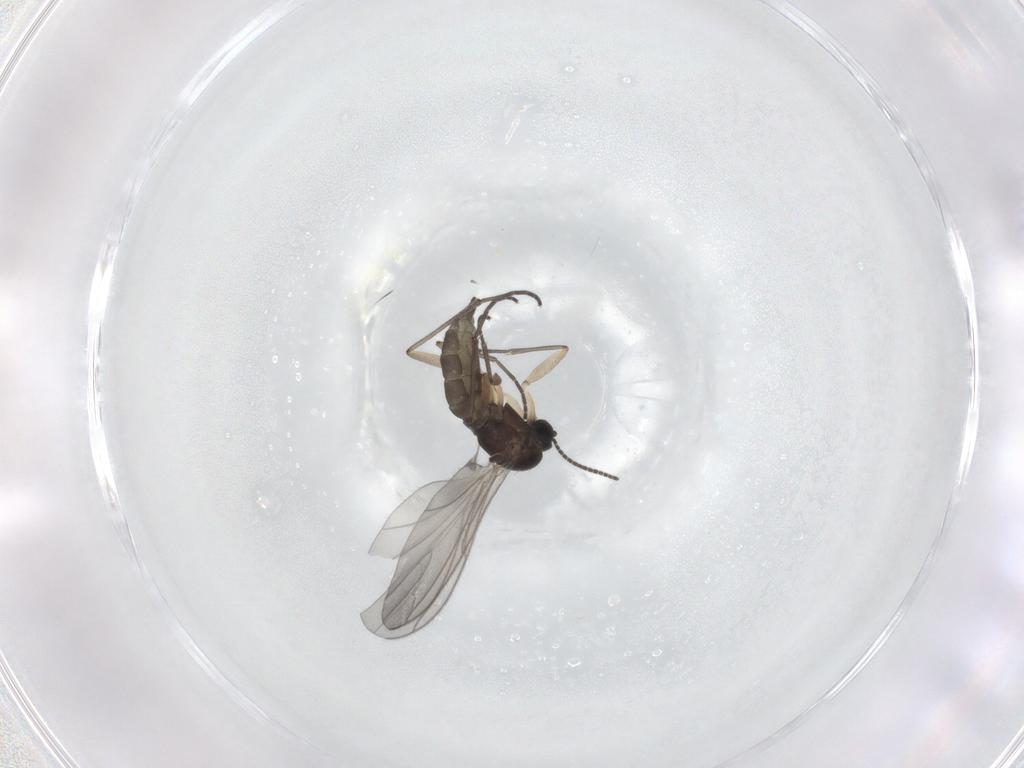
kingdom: Animalia
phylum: Arthropoda
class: Insecta
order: Diptera
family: Sciaridae
